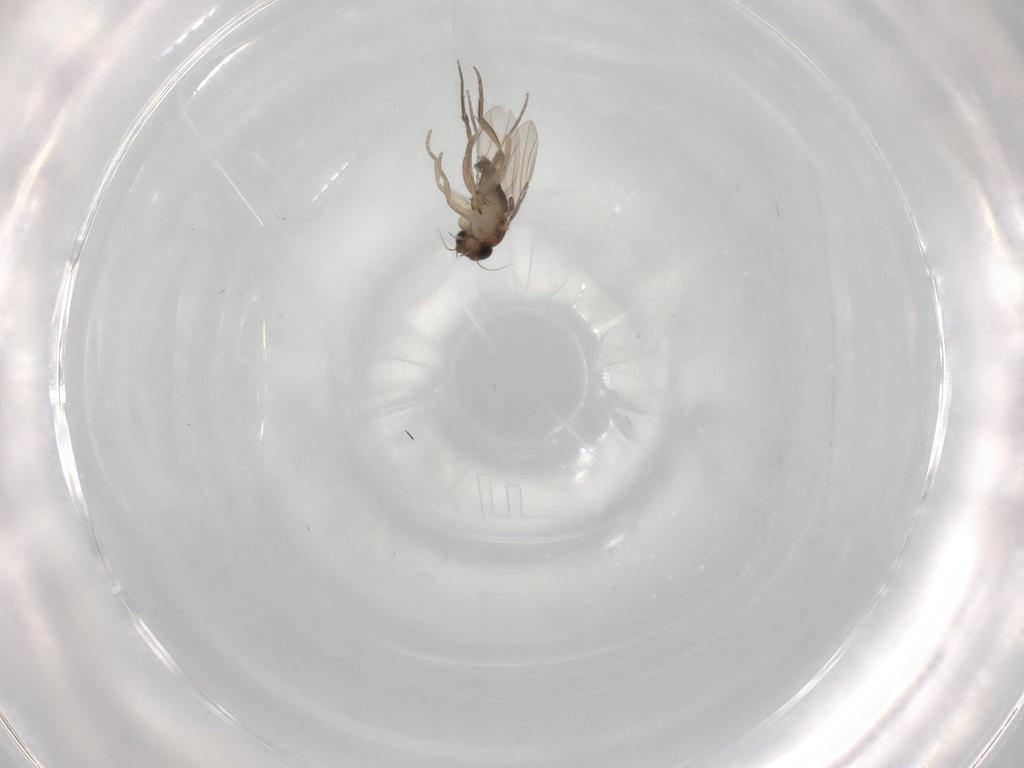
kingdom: Animalia
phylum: Arthropoda
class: Insecta
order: Diptera
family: Phoridae
